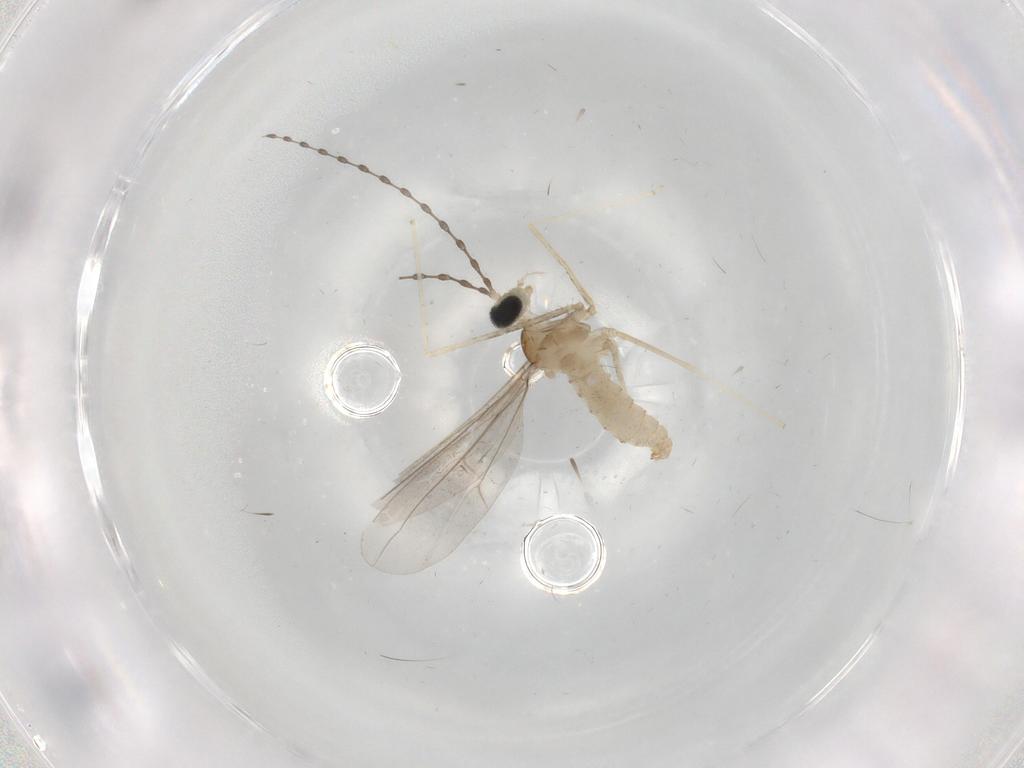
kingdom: Animalia
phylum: Arthropoda
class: Insecta
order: Diptera
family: Cecidomyiidae
